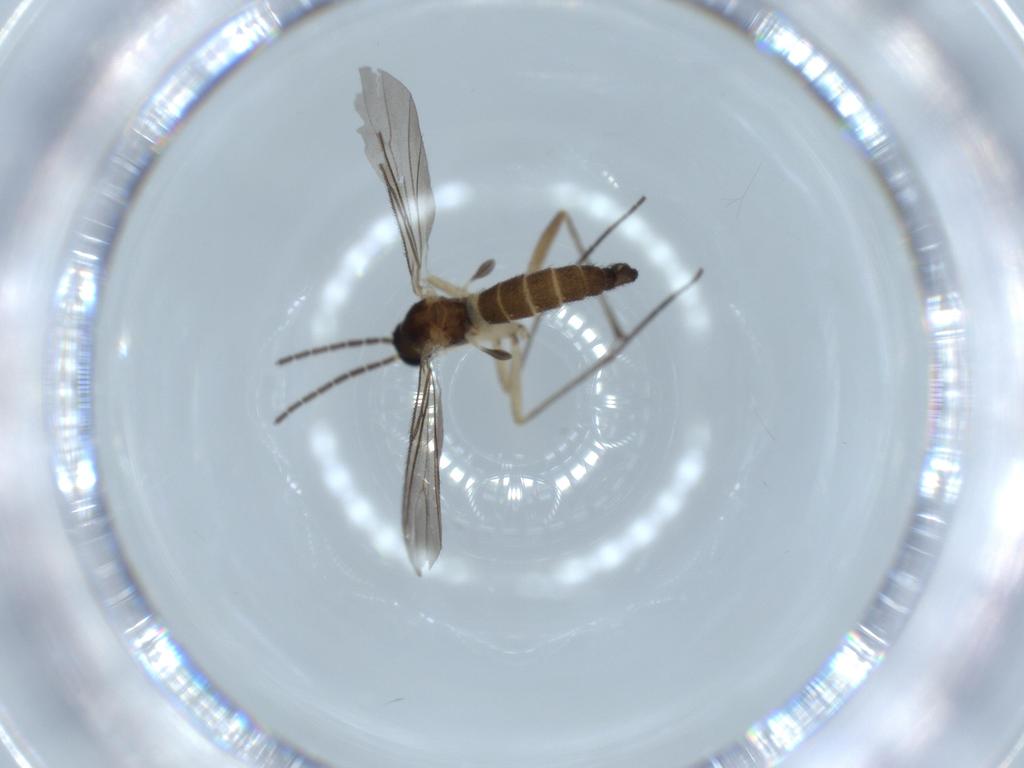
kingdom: Animalia
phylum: Arthropoda
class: Insecta
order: Diptera
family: Sciaridae
